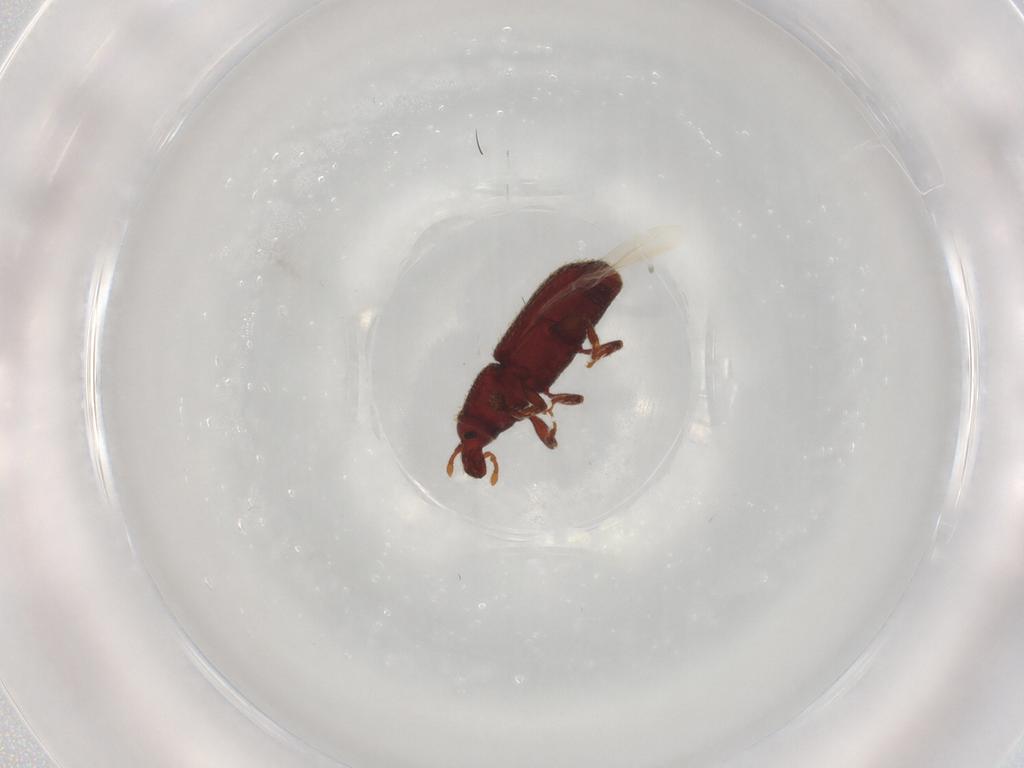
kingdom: Animalia
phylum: Arthropoda
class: Insecta
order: Coleoptera
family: Curculionidae
